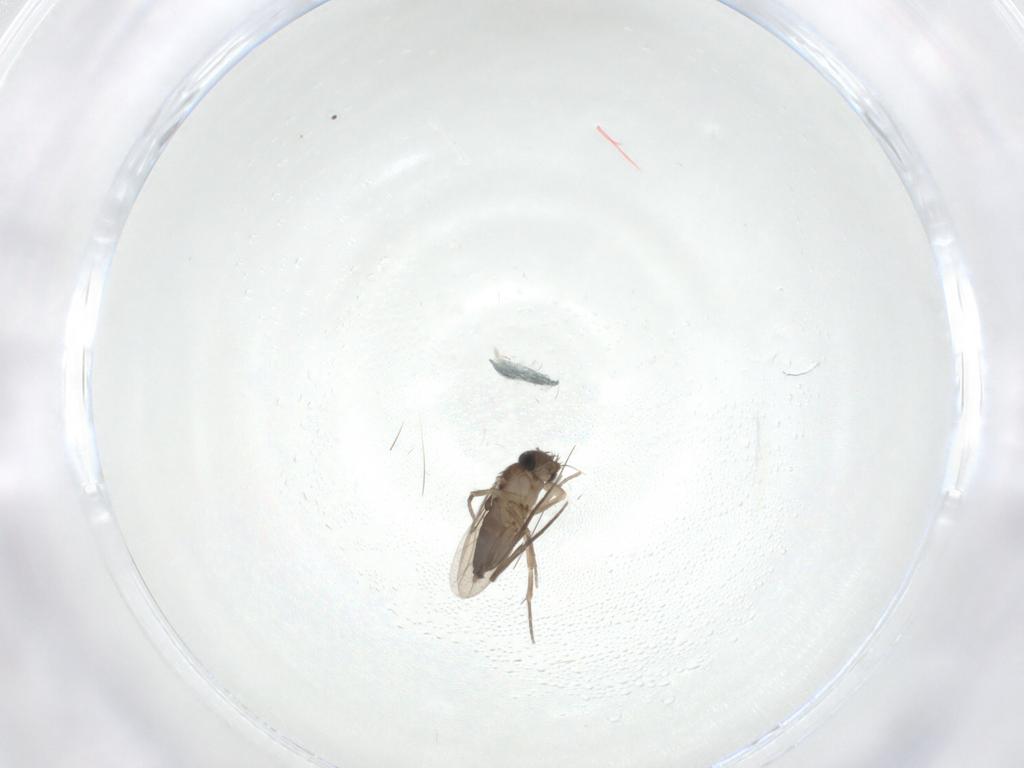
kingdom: Animalia
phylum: Arthropoda
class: Insecta
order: Diptera
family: Phoridae
